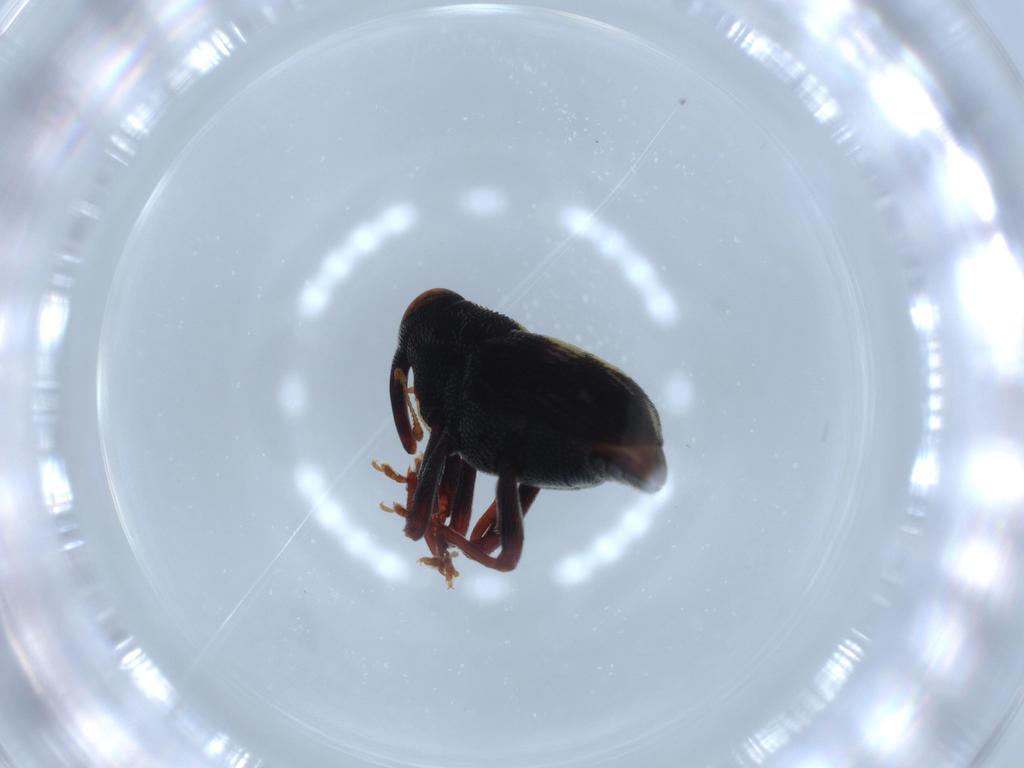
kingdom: Animalia
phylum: Arthropoda
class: Insecta
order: Coleoptera
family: Curculionidae
